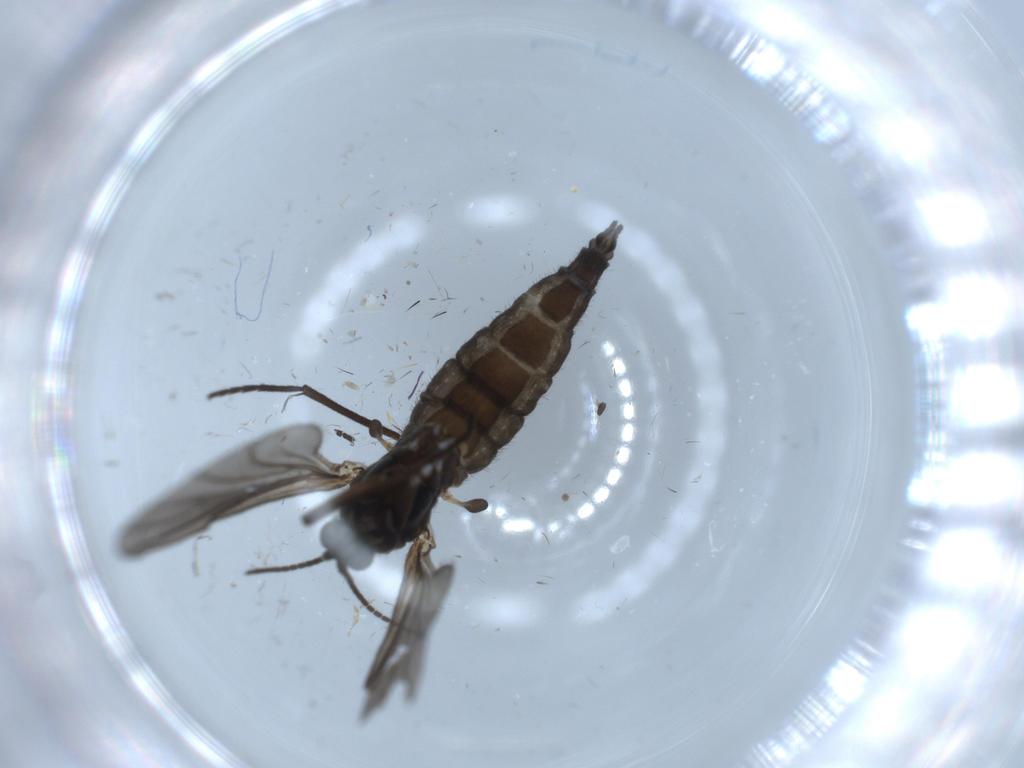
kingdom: Animalia
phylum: Arthropoda
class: Insecta
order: Diptera
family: Sciaridae
